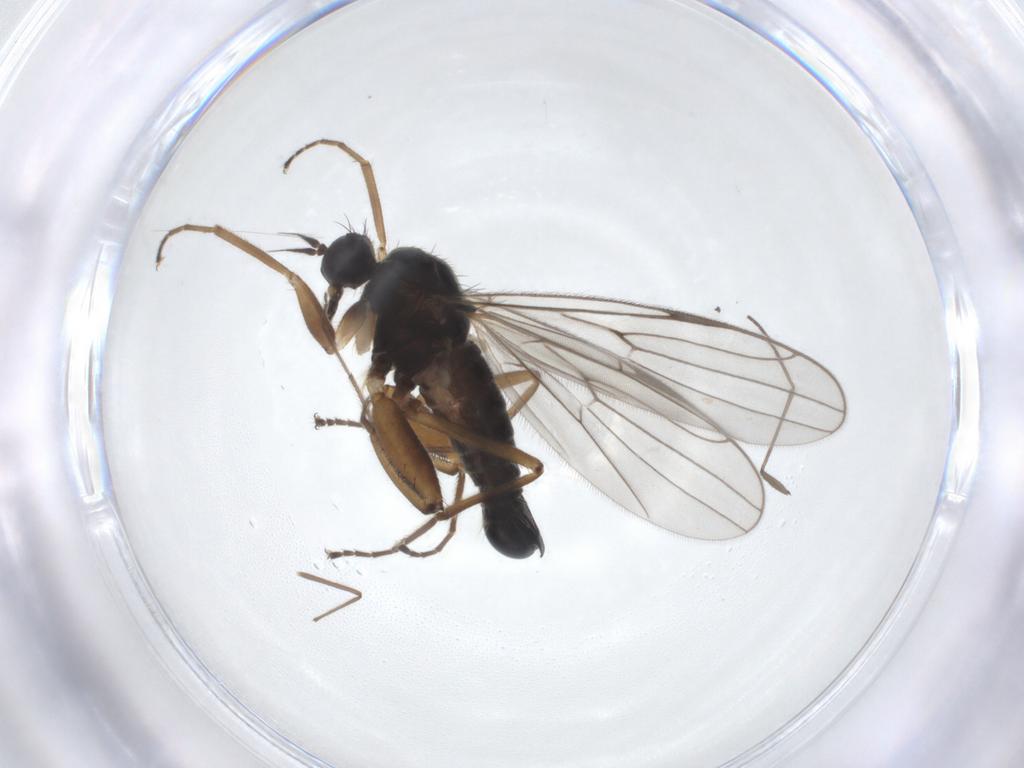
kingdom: Animalia
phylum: Arthropoda
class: Insecta
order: Diptera
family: Hybotidae
